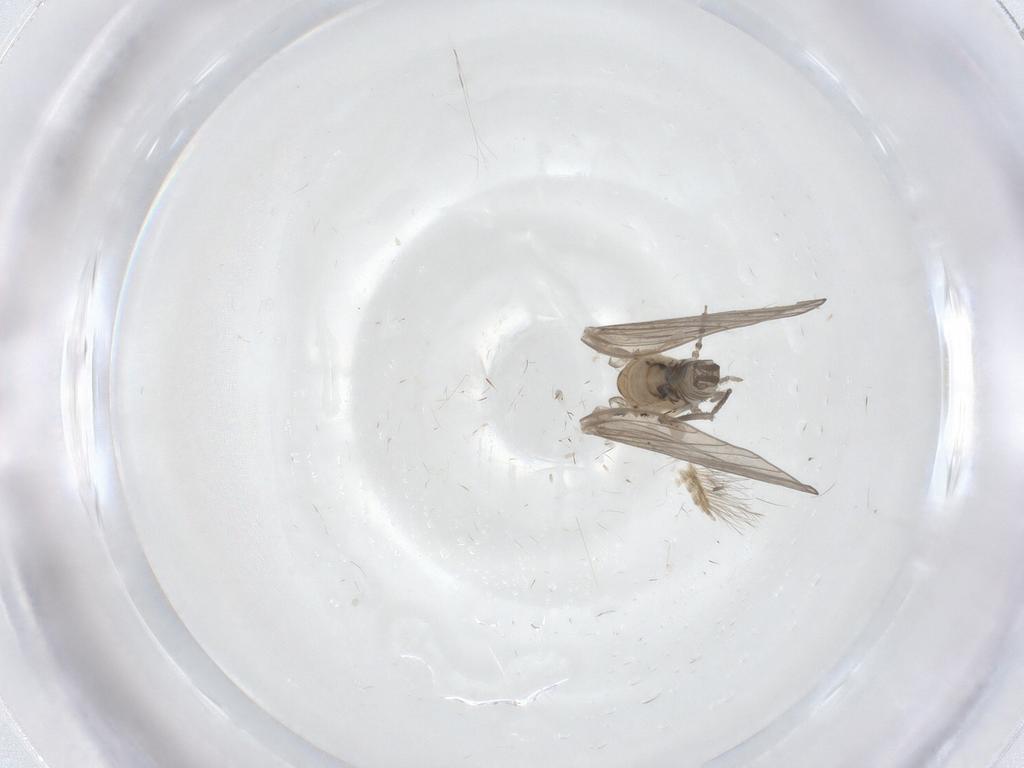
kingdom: Animalia
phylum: Arthropoda
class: Insecta
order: Diptera
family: Psychodidae
